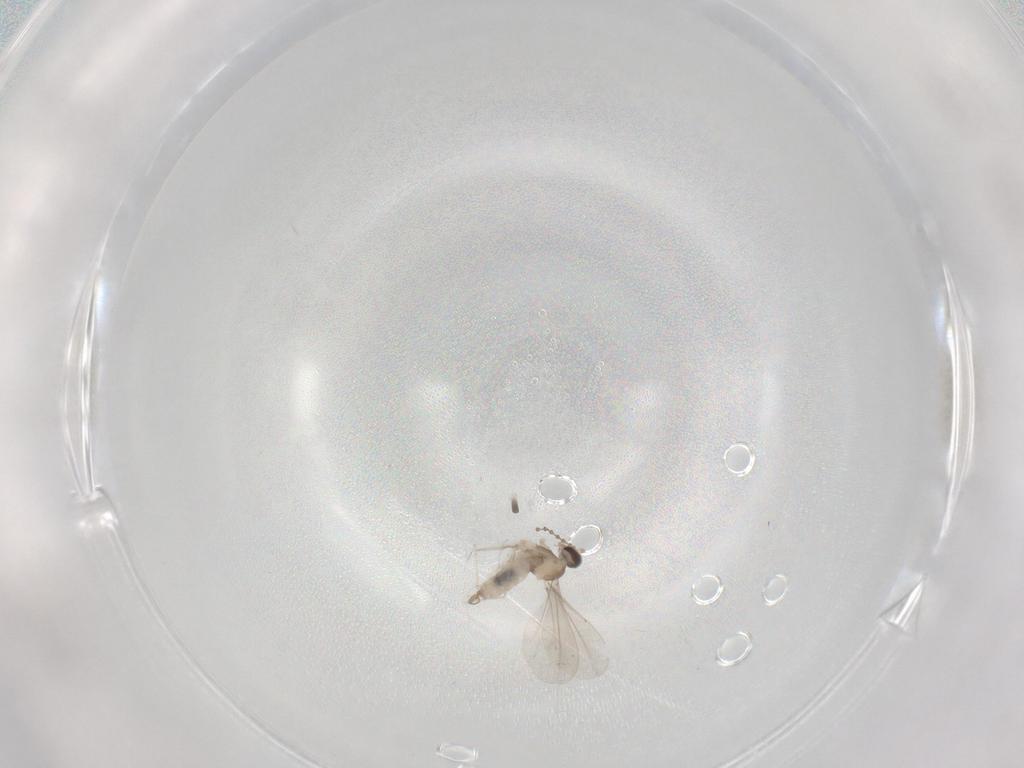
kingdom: Animalia
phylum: Arthropoda
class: Insecta
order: Diptera
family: Cecidomyiidae
